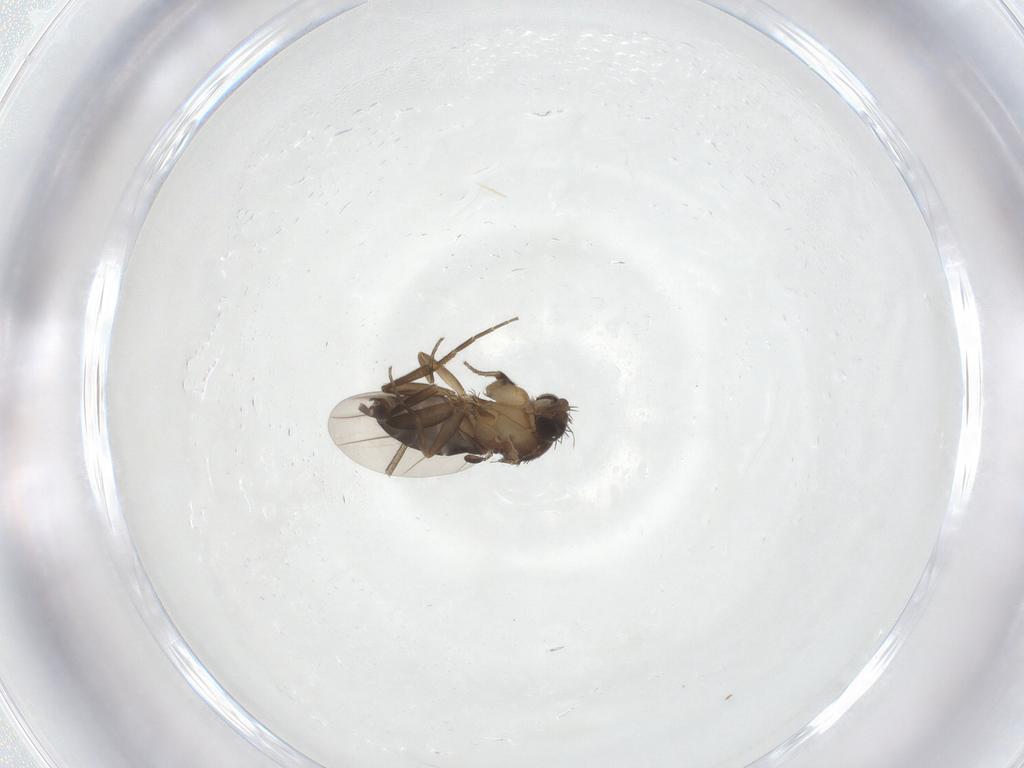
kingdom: Animalia
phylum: Arthropoda
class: Insecta
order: Diptera
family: Phoridae
